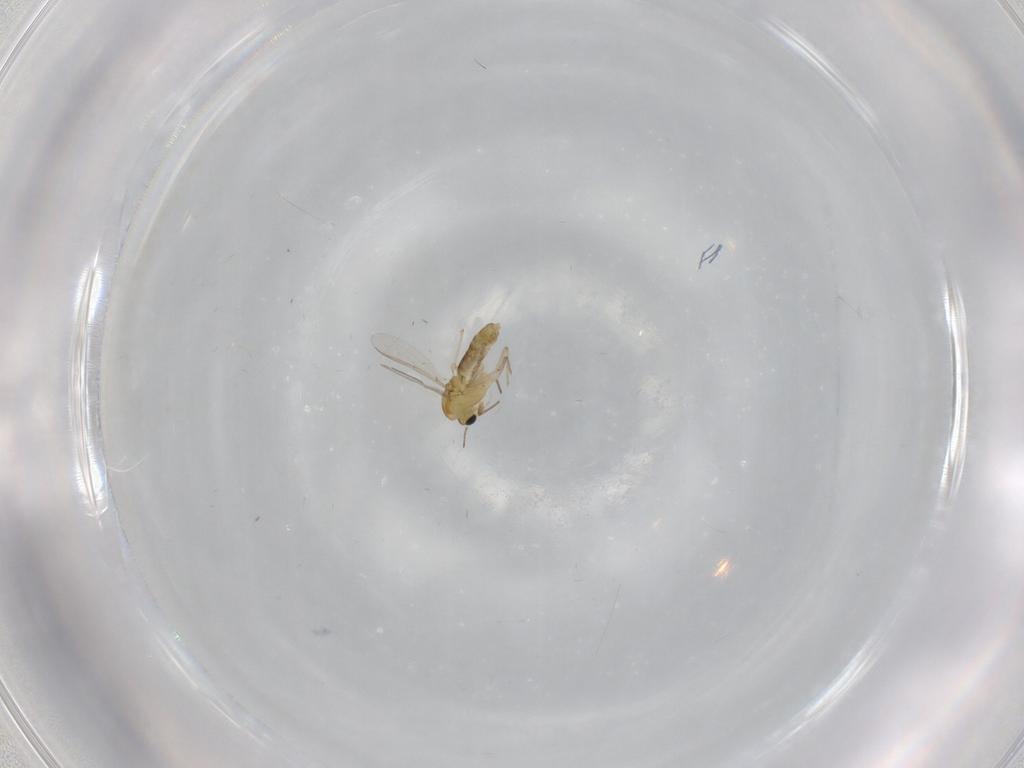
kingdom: Animalia
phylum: Arthropoda
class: Insecta
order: Diptera
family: Chironomidae
